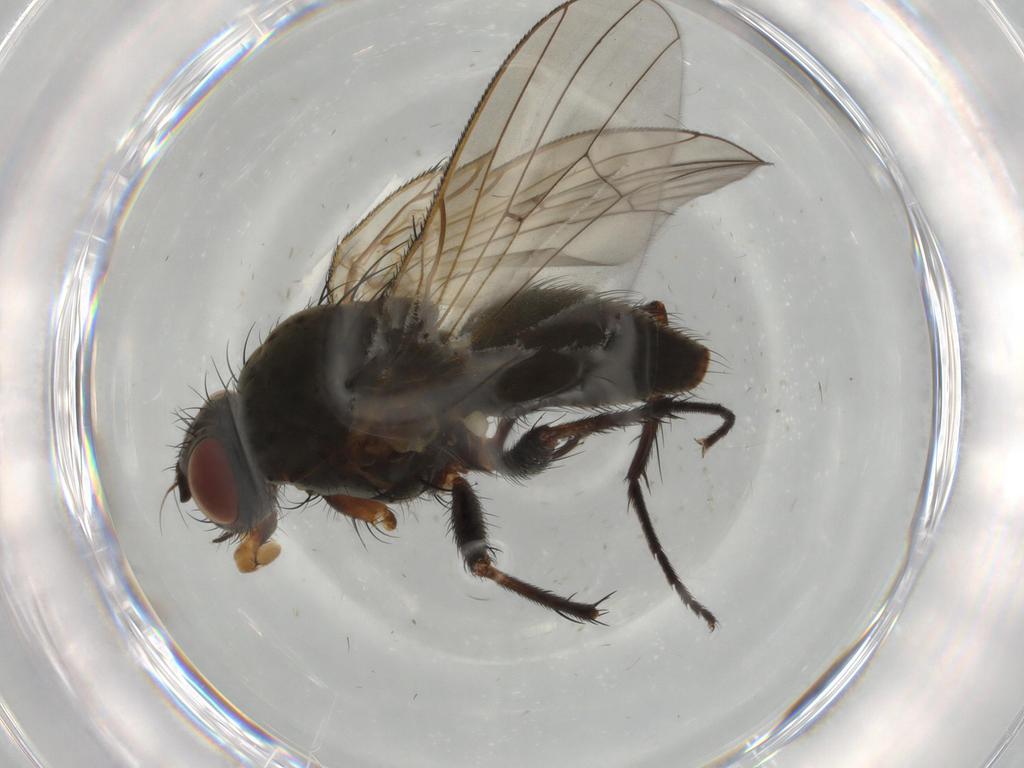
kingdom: Animalia
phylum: Arthropoda
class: Insecta
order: Diptera
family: Anthomyiidae
